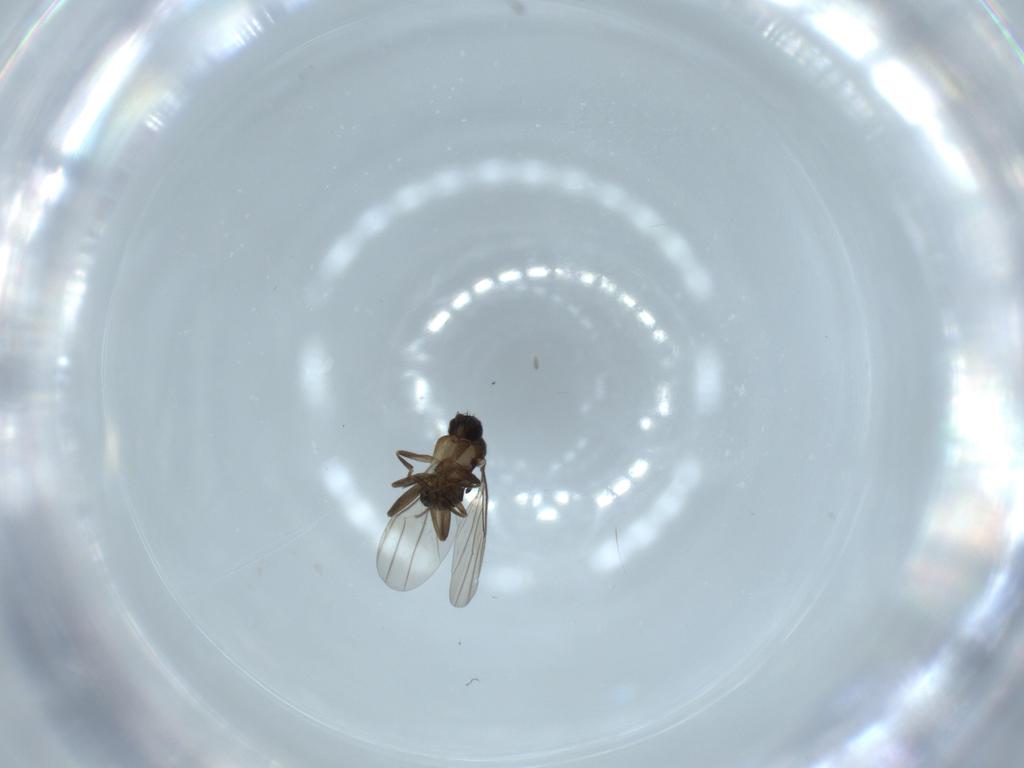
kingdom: Animalia
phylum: Arthropoda
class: Insecta
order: Diptera
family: Phoridae
